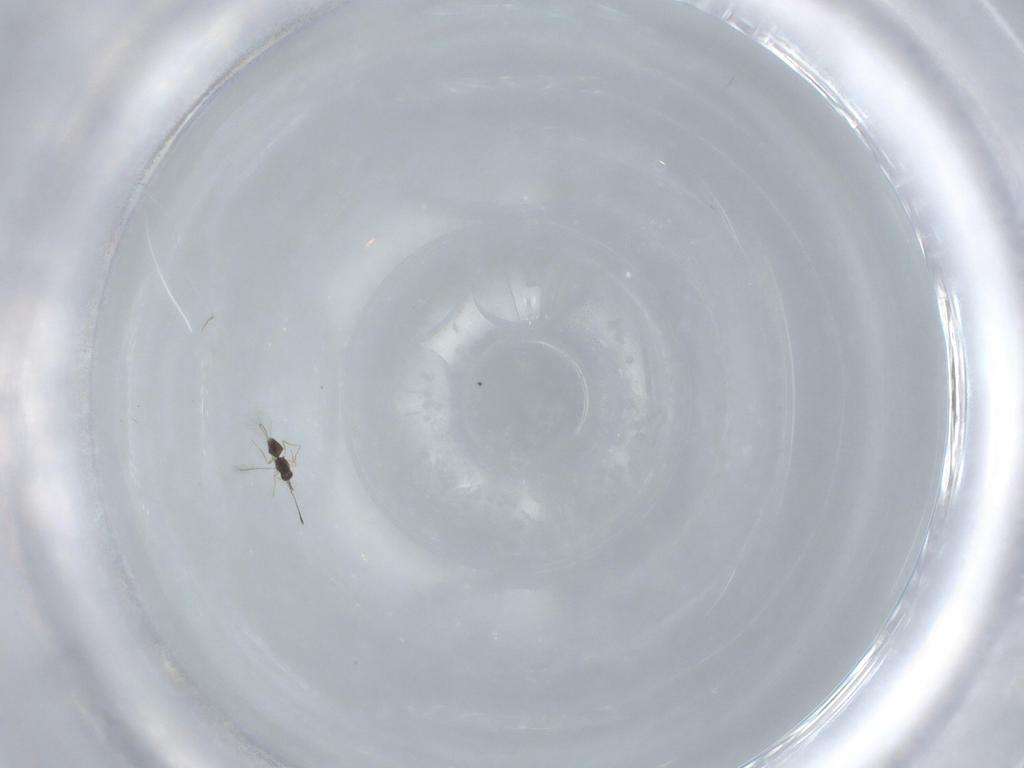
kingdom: Animalia
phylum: Arthropoda
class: Insecta
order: Hymenoptera
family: Mymaridae
